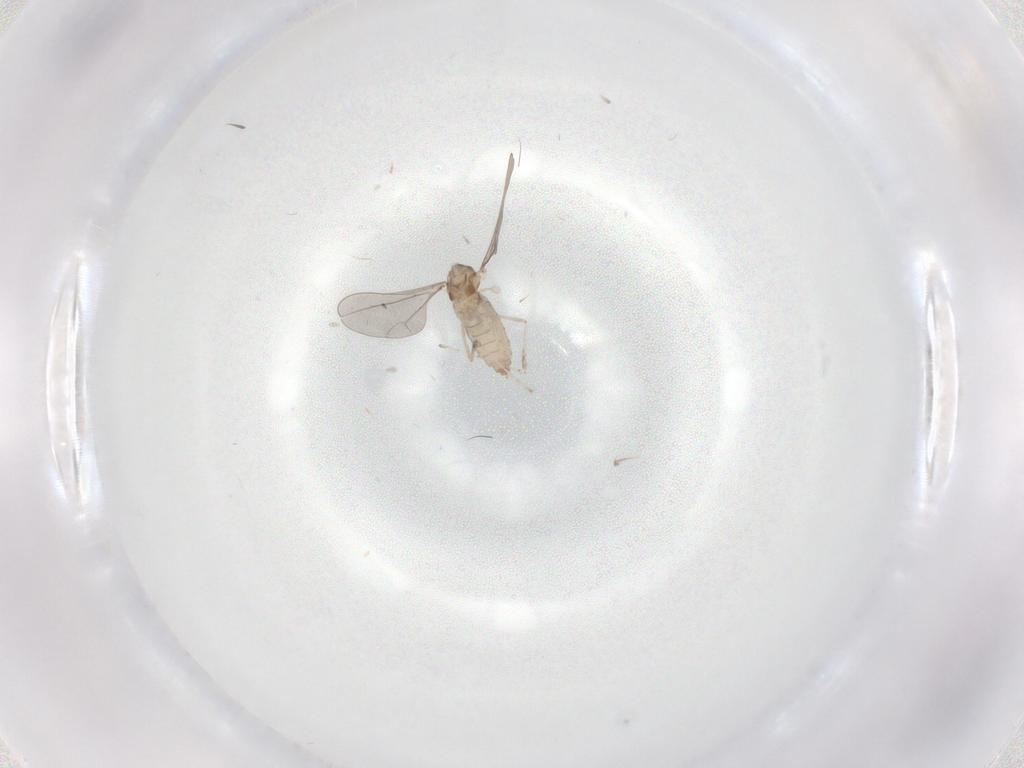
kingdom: Animalia
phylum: Arthropoda
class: Insecta
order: Diptera
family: Cecidomyiidae
